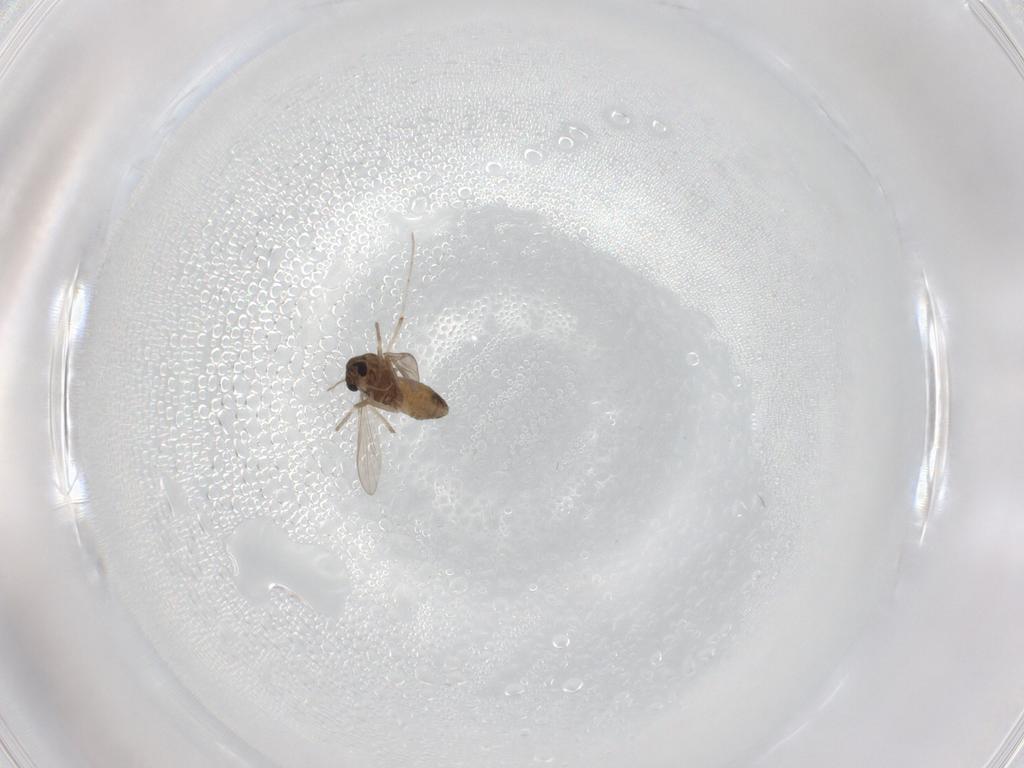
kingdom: Animalia
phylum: Arthropoda
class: Insecta
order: Diptera
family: Chironomidae
